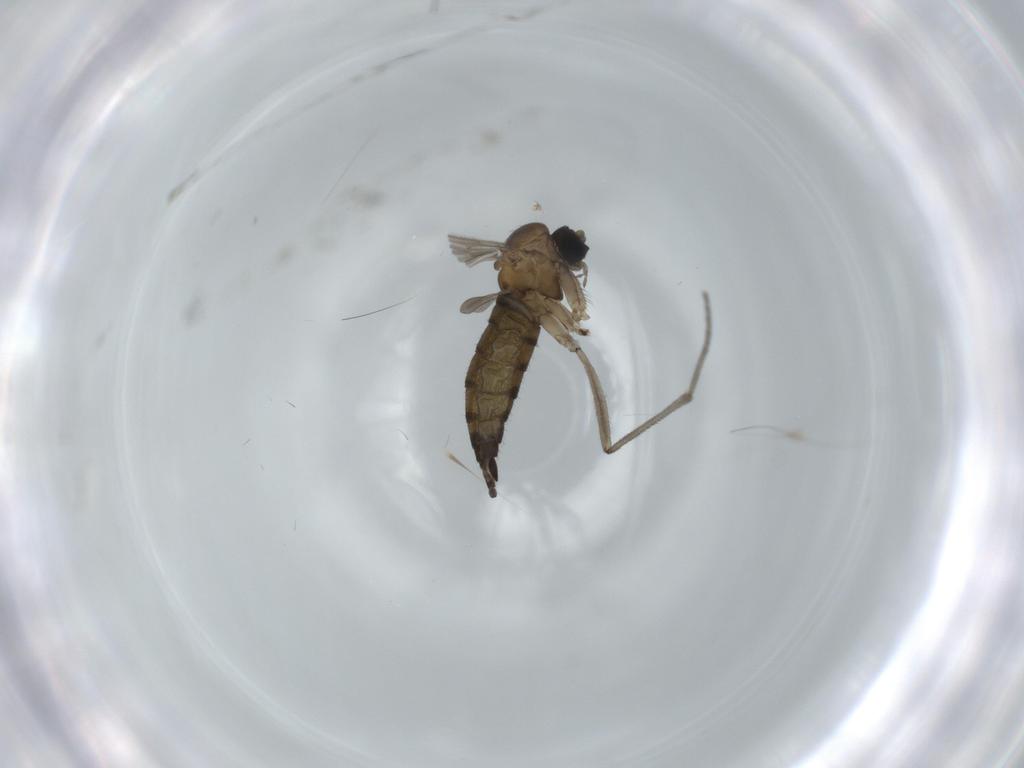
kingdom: Animalia
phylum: Arthropoda
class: Insecta
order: Diptera
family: Sciaridae
